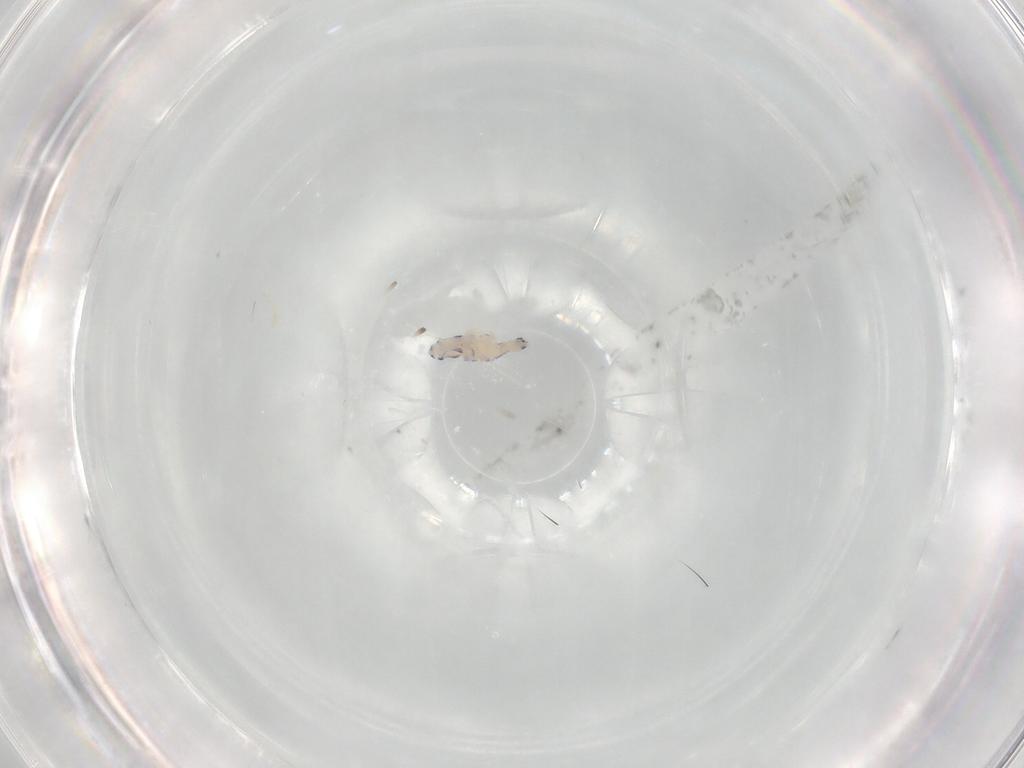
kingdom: Animalia
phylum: Arthropoda
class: Collembola
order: Entomobryomorpha
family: Entomobryidae
